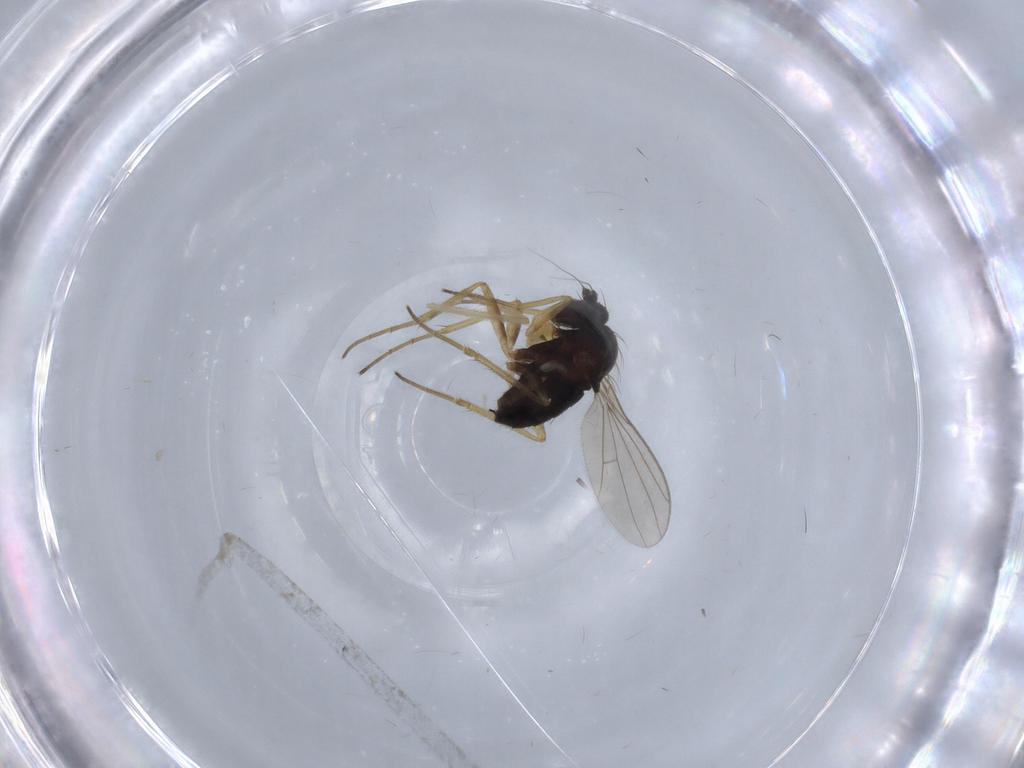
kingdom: Animalia
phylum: Arthropoda
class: Insecta
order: Diptera
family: Dolichopodidae
